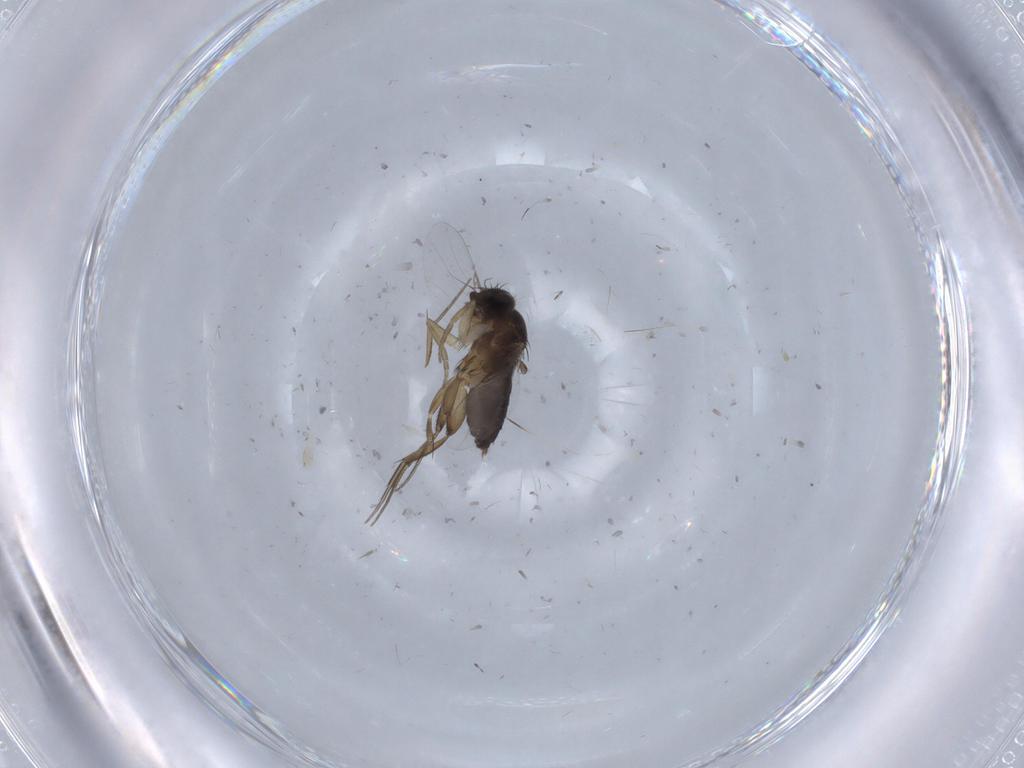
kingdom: Animalia
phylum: Arthropoda
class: Insecta
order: Diptera
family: Phoridae
